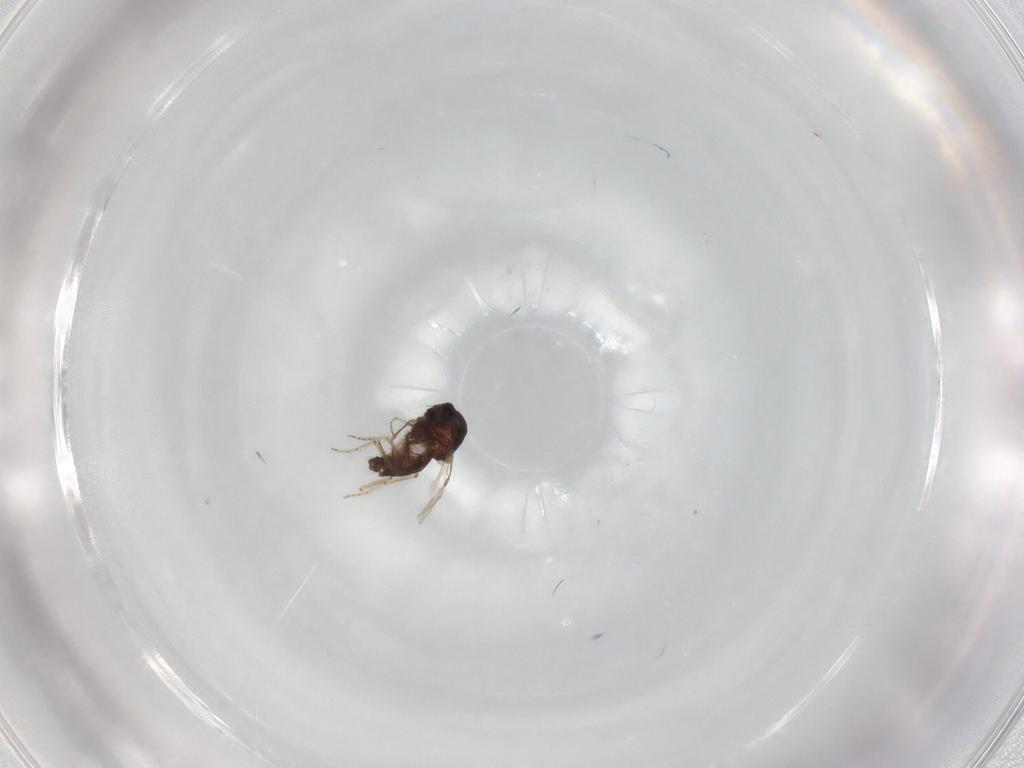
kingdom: Animalia
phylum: Arthropoda
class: Insecta
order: Diptera
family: Ceratopogonidae
